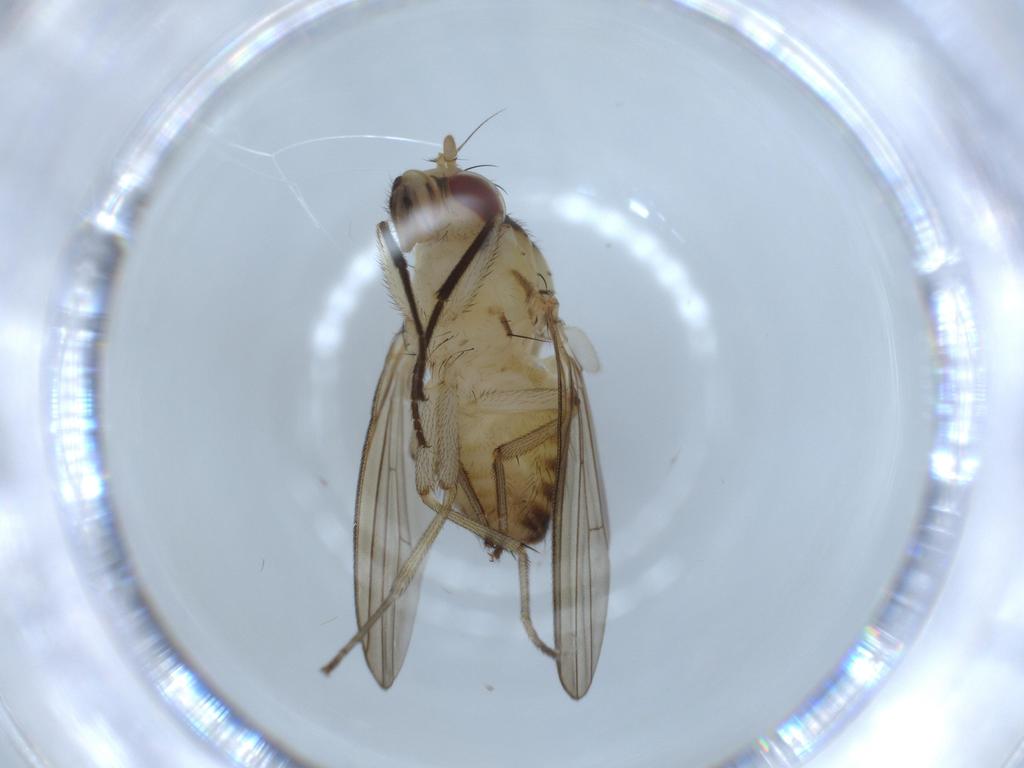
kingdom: Animalia
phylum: Arthropoda
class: Insecta
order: Diptera
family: Lauxaniidae
